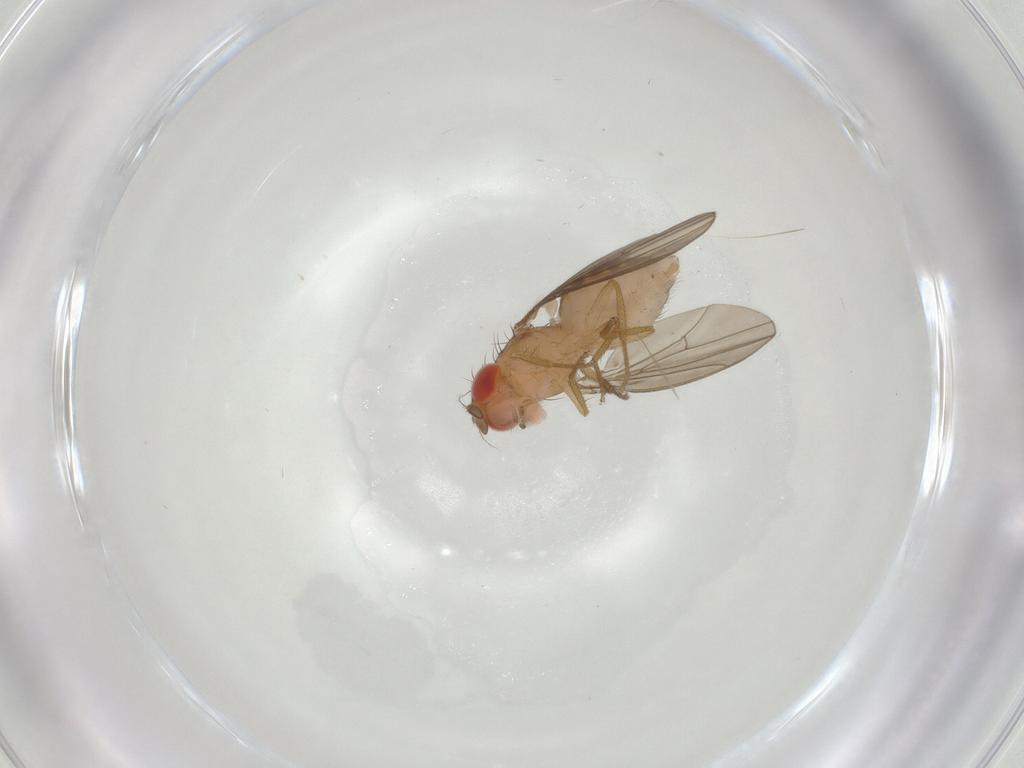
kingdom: Animalia
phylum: Arthropoda
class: Insecta
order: Diptera
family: Drosophilidae
